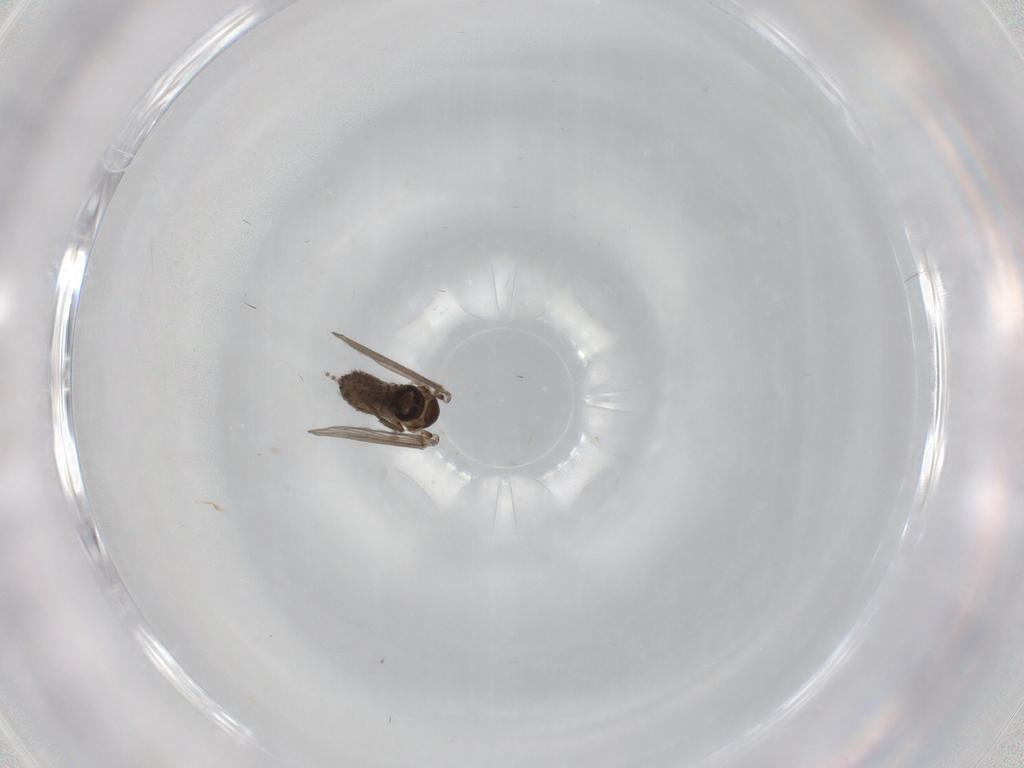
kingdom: Animalia
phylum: Arthropoda
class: Insecta
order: Diptera
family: Psychodidae
